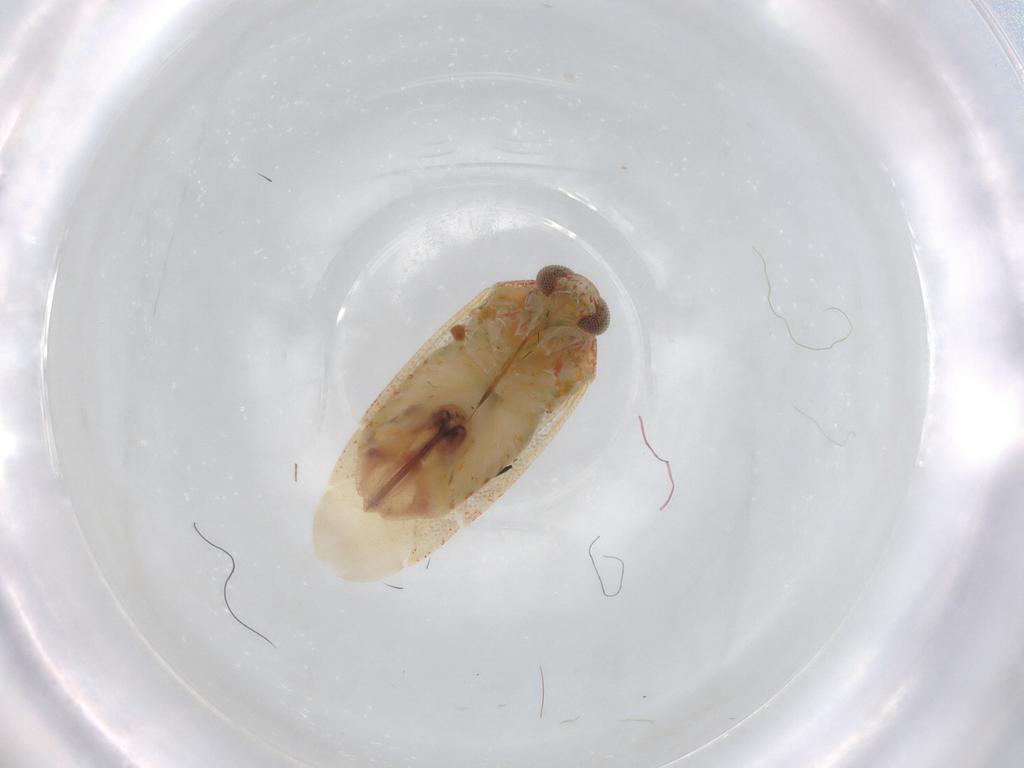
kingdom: Animalia
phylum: Arthropoda
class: Insecta
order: Hemiptera
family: Miridae
